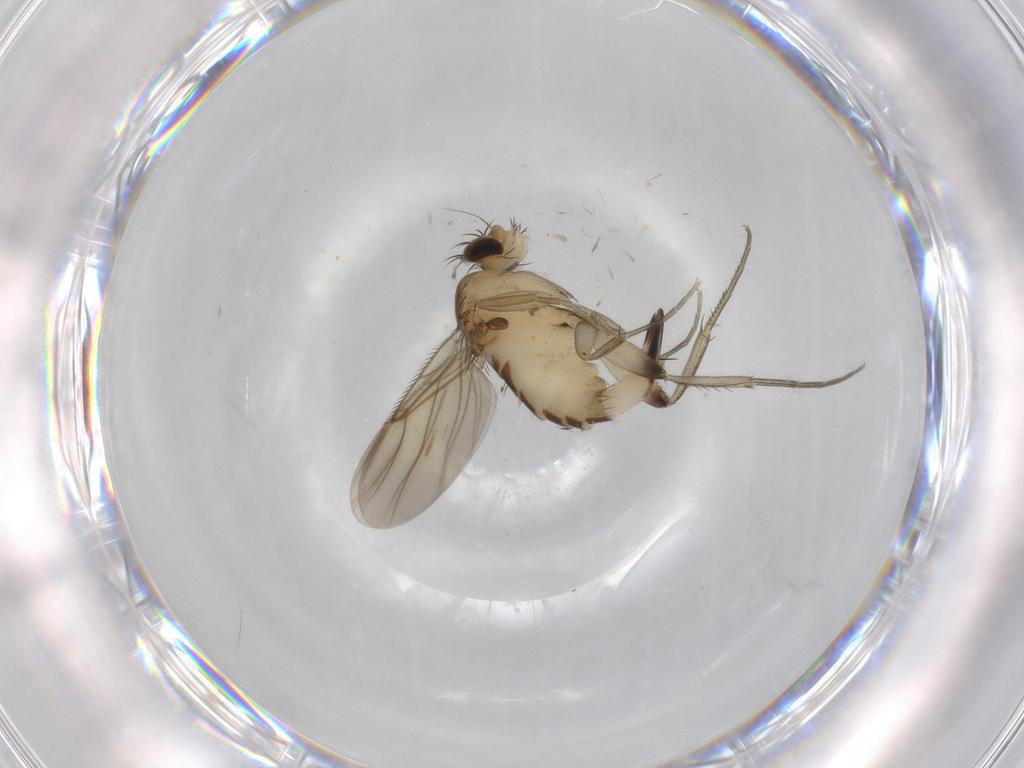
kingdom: Animalia
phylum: Arthropoda
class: Insecta
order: Diptera
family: Phoridae
